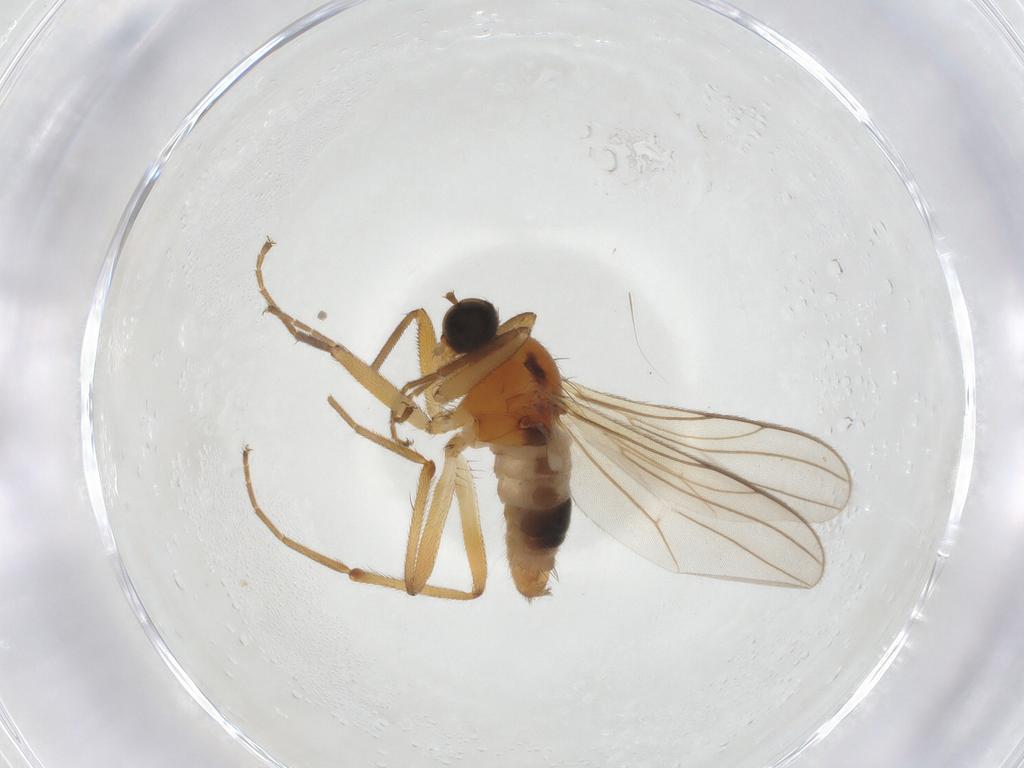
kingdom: Animalia
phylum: Arthropoda
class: Insecta
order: Diptera
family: Hybotidae
